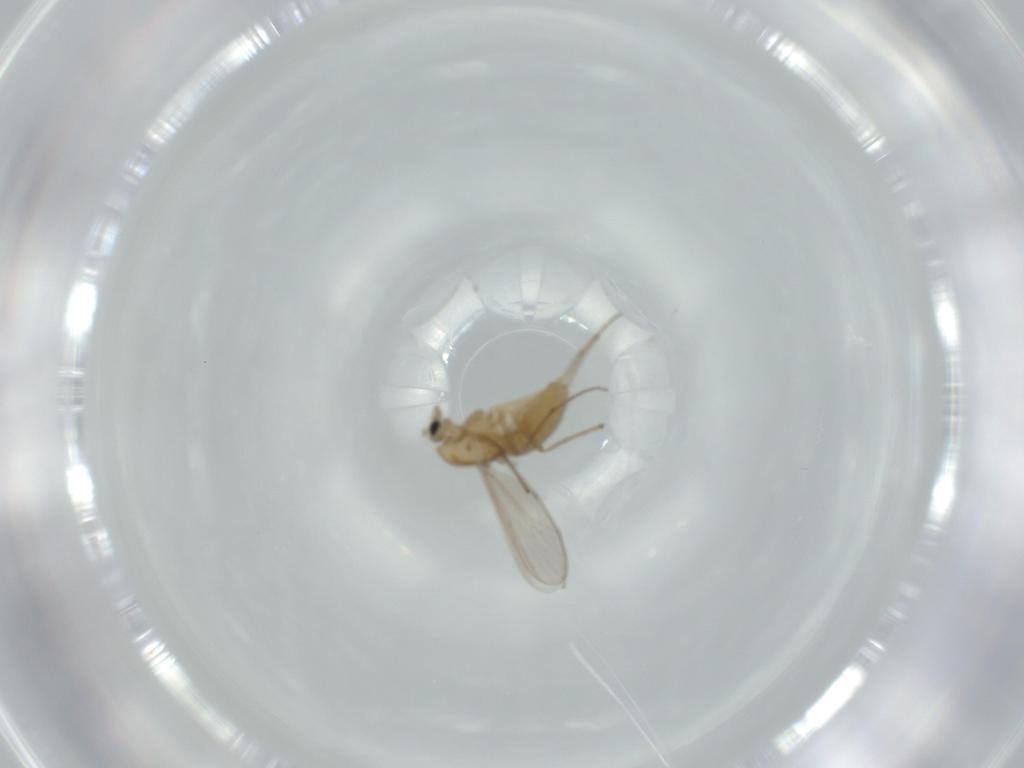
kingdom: Animalia
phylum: Arthropoda
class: Insecta
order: Diptera
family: Chironomidae
